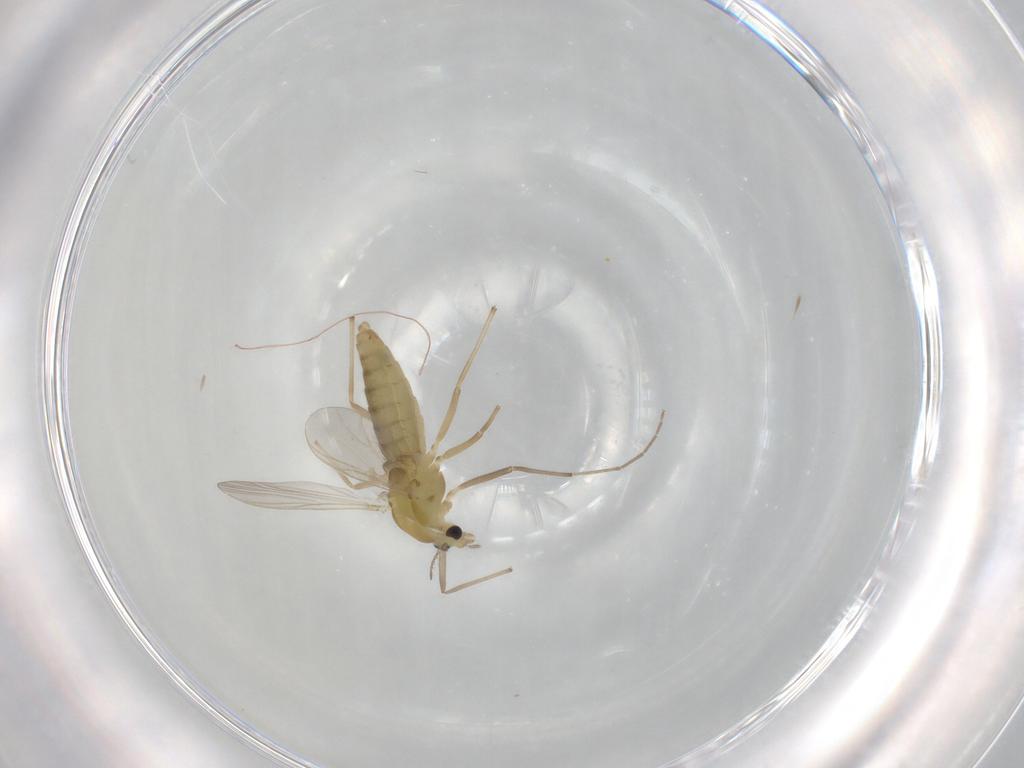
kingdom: Animalia
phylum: Arthropoda
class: Insecta
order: Diptera
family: Chironomidae
